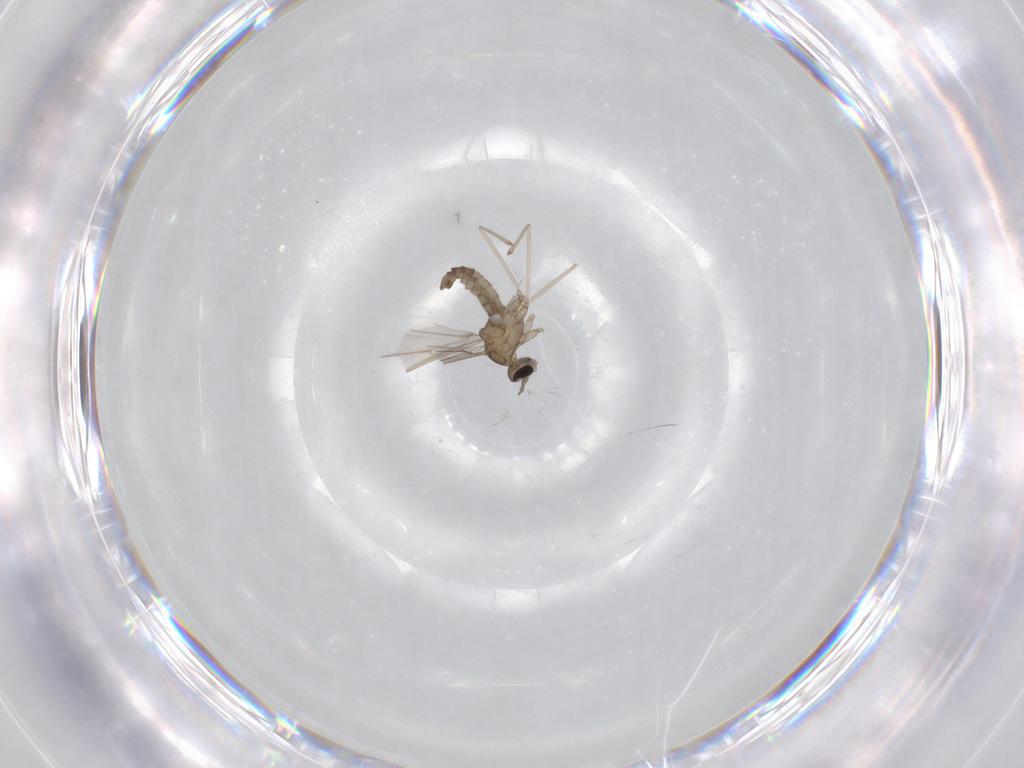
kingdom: Animalia
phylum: Arthropoda
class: Insecta
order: Diptera
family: Cecidomyiidae
